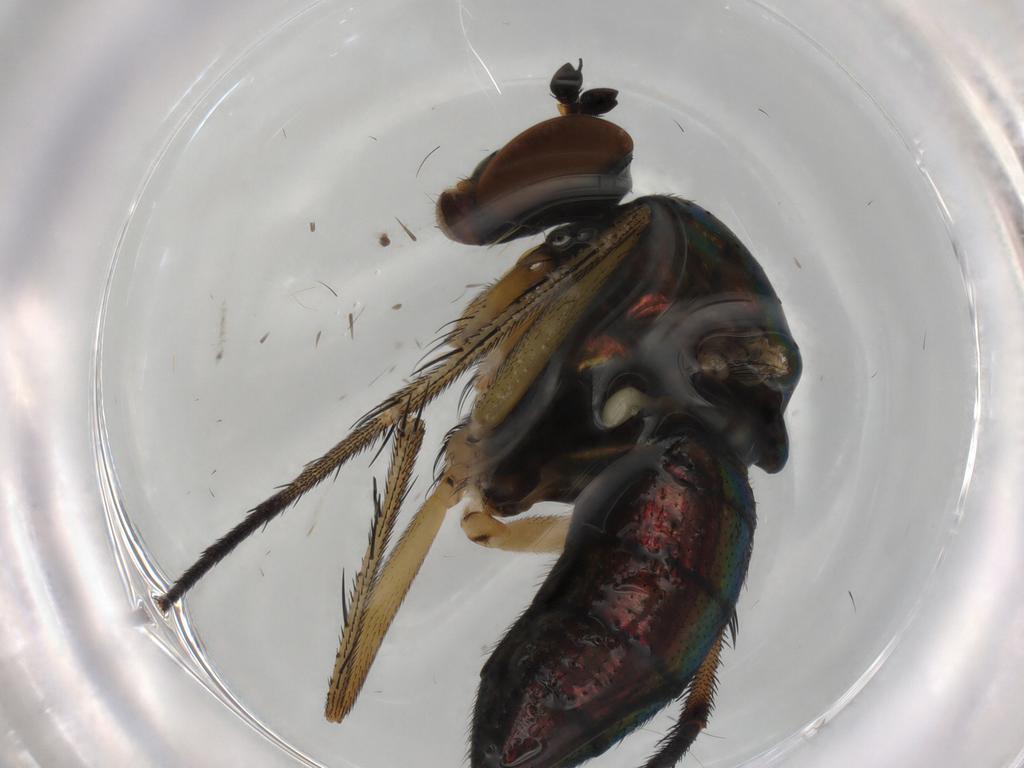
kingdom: Animalia
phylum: Arthropoda
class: Insecta
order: Diptera
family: Dolichopodidae
